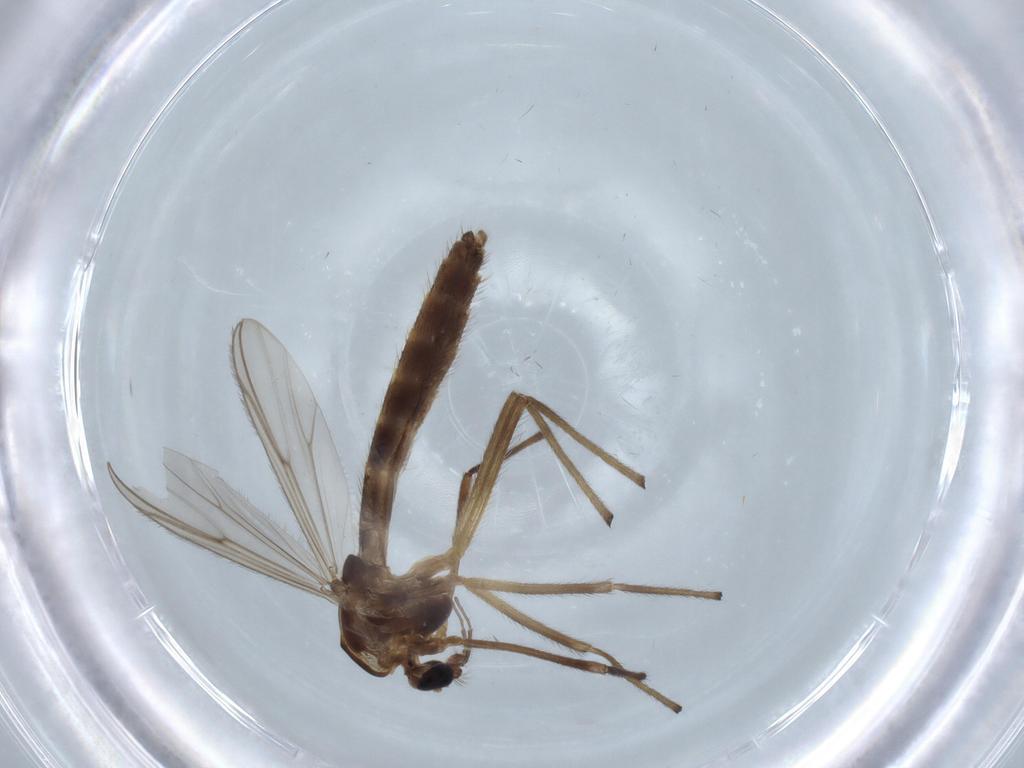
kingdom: Animalia
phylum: Arthropoda
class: Insecta
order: Diptera
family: Chironomidae
